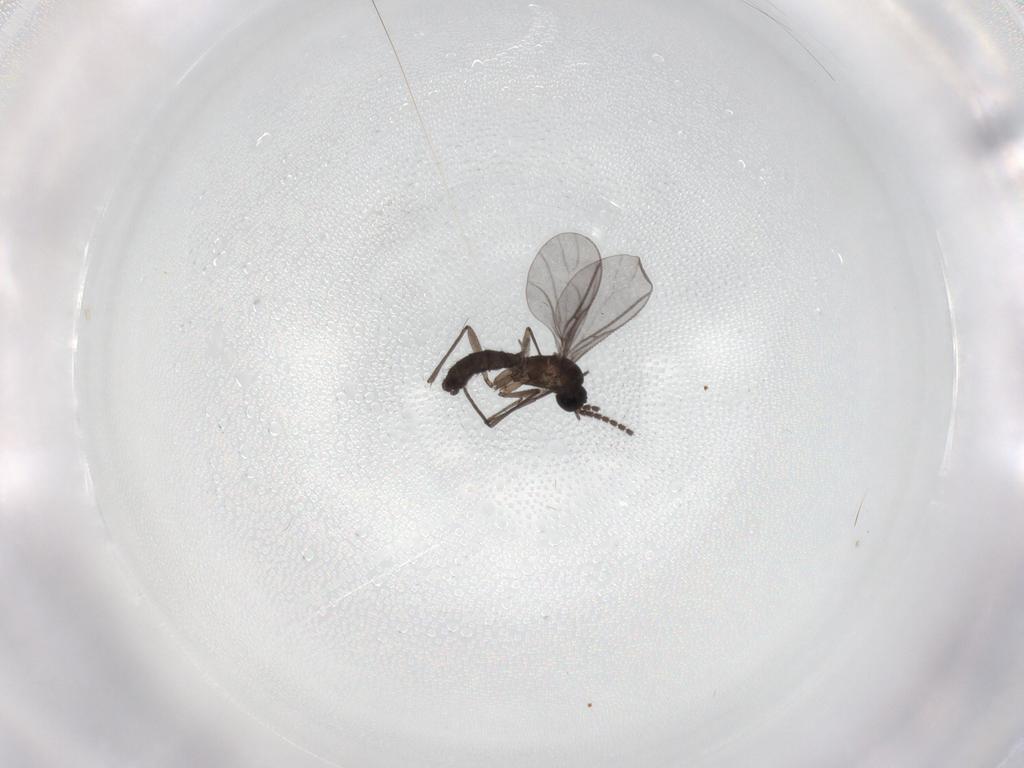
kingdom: Animalia
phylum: Arthropoda
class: Insecta
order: Diptera
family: Sciaridae
